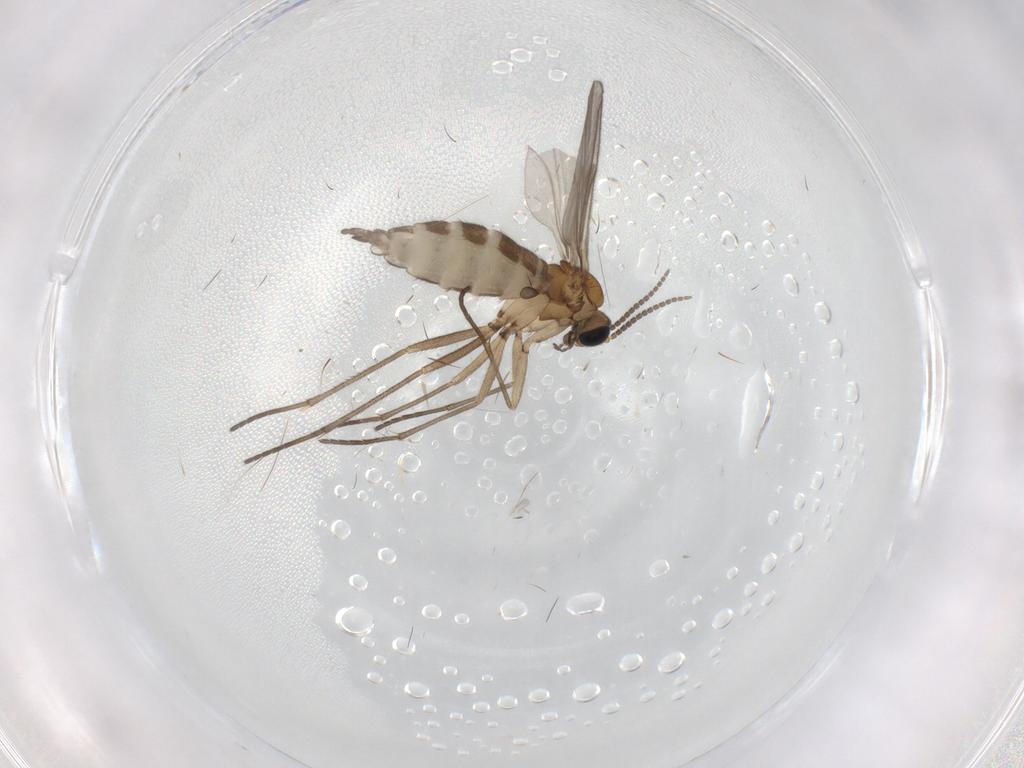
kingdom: Animalia
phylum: Arthropoda
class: Insecta
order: Diptera
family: Sciaridae
